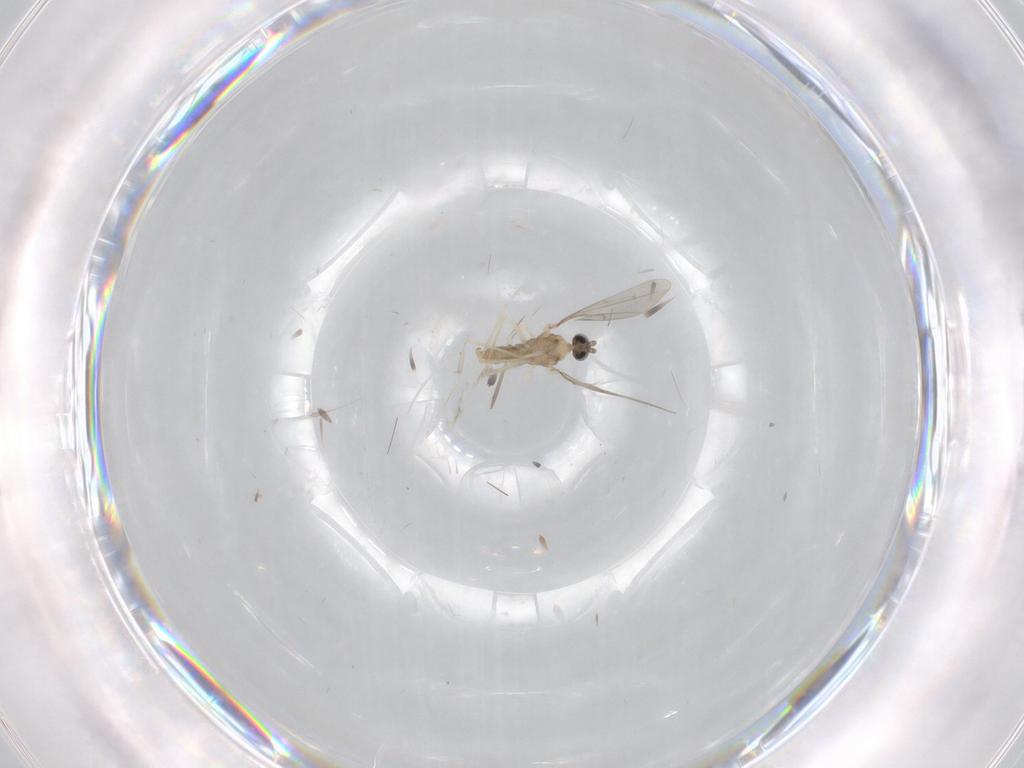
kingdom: Animalia
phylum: Arthropoda
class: Insecta
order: Diptera
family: Cecidomyiidae
